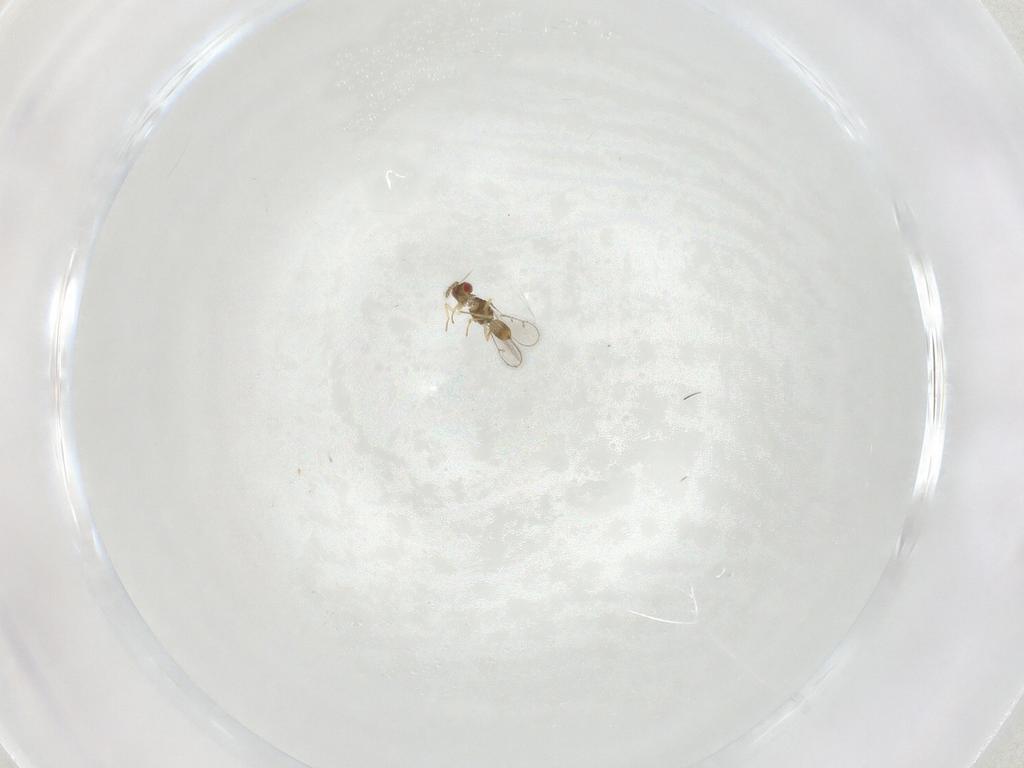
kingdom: Animalia
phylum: Arthropoda
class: Insecta
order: Hymenoptera
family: Eulophidae
